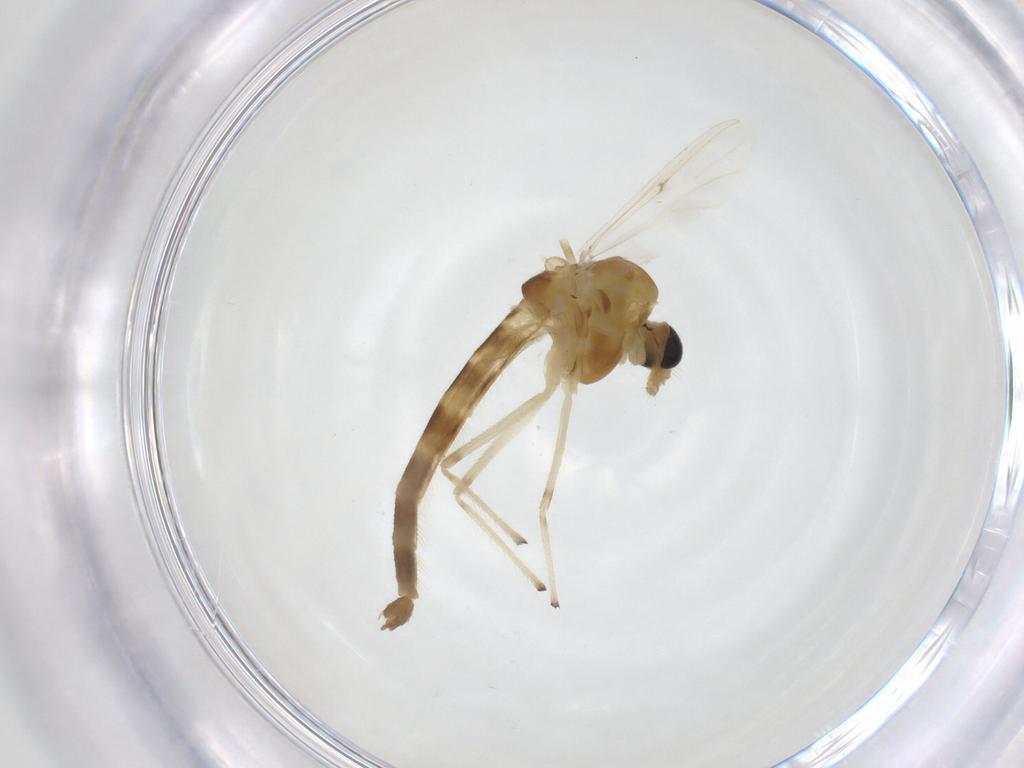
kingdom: Animalia
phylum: Arthropoda
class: Insecta
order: Diptera
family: Chironomidae
